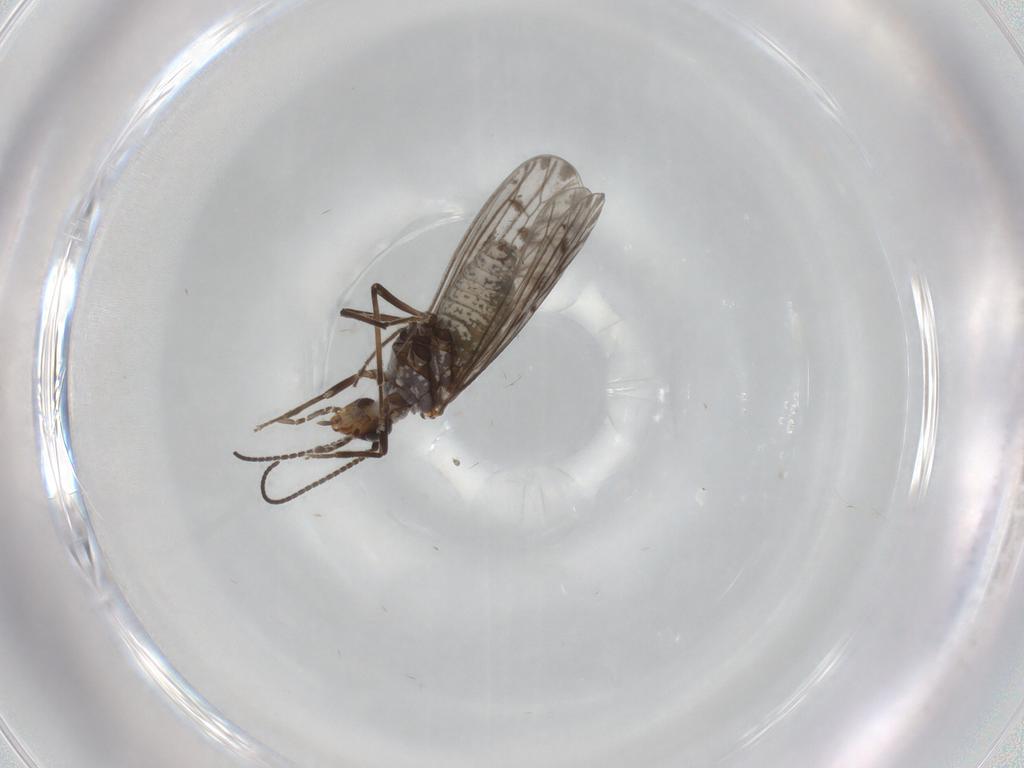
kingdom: Animalia
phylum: Arthropoda
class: Insecta
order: Neuroptera
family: Coniopterygidae
